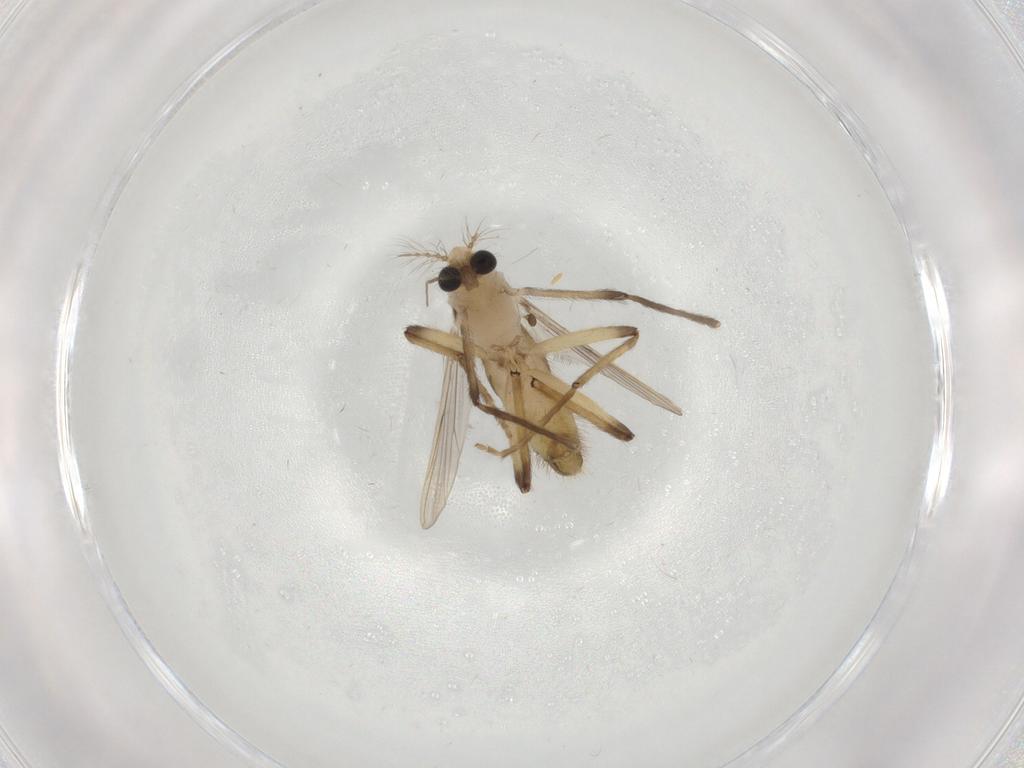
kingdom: Animalia
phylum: Arthropoda
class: Insecta
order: Diptera
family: Chironomidae
